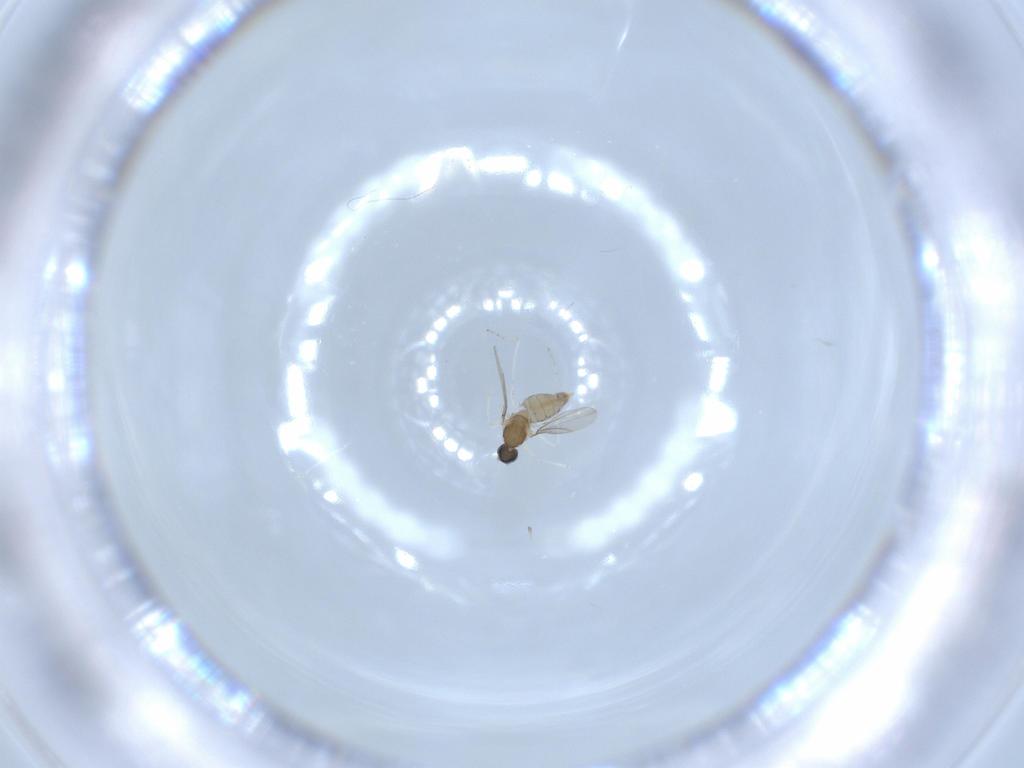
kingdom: Animalia
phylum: Arthropoda
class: Insecta
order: Diptera
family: Cecidomyiidae
